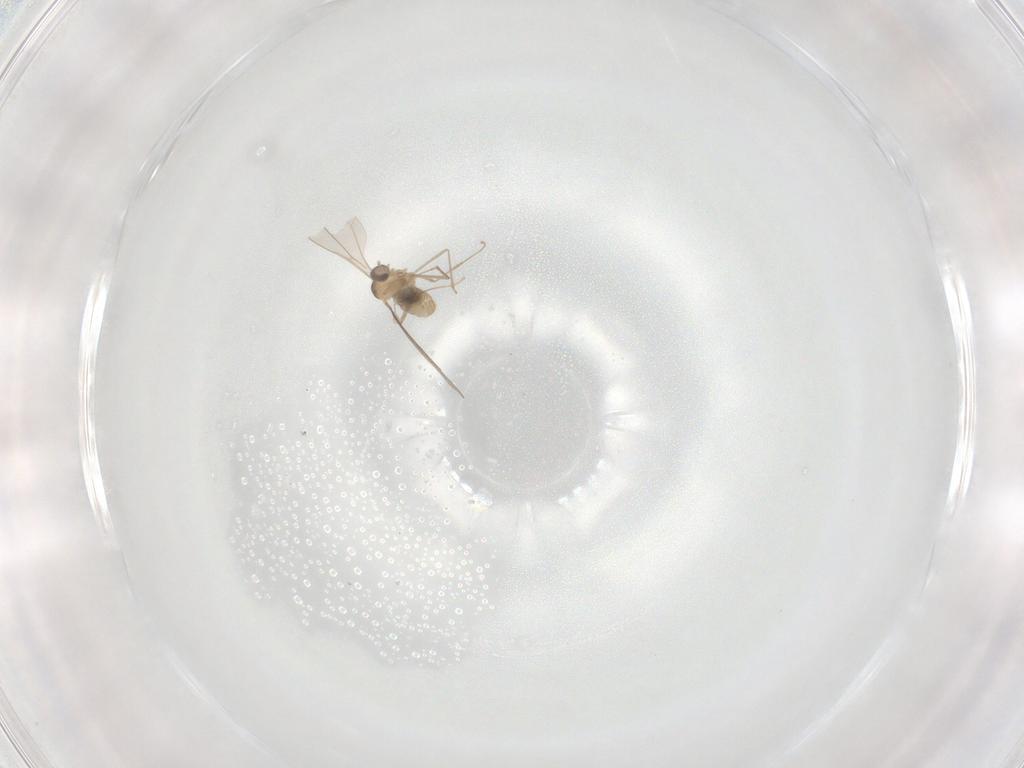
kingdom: Animalia
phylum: Arthropoda
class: Insecta
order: Diptera
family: Cecidomyiidae
